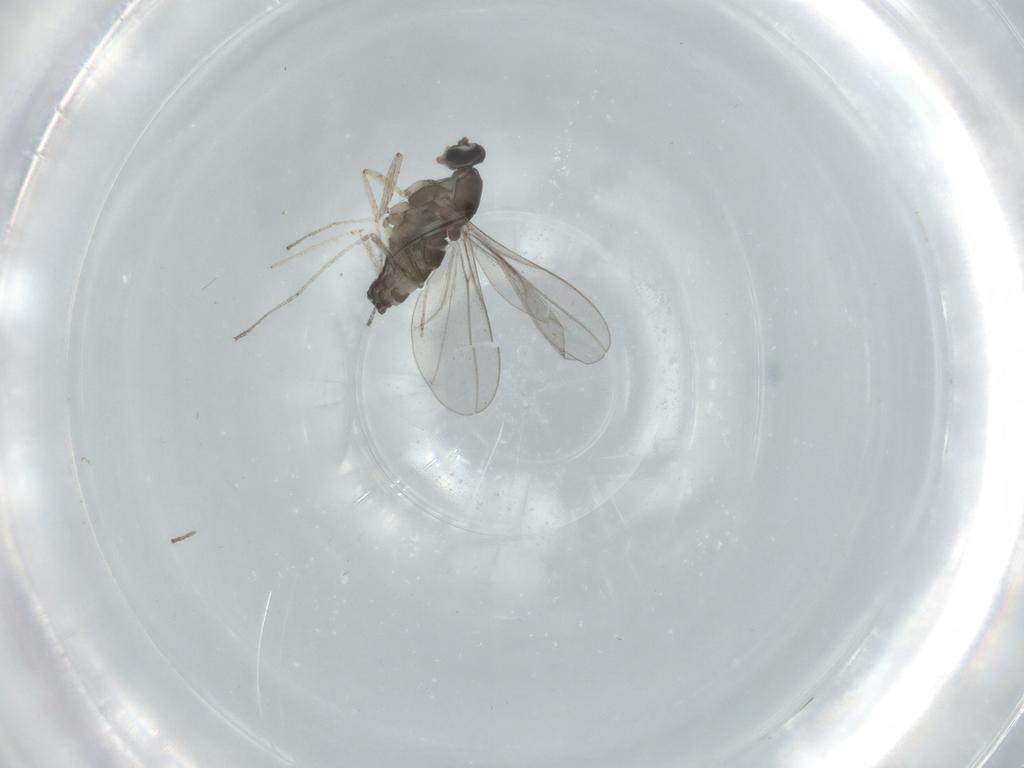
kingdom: Animalia
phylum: Arthropoda
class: Insecta
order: Diptera
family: Cecidomyiidae
